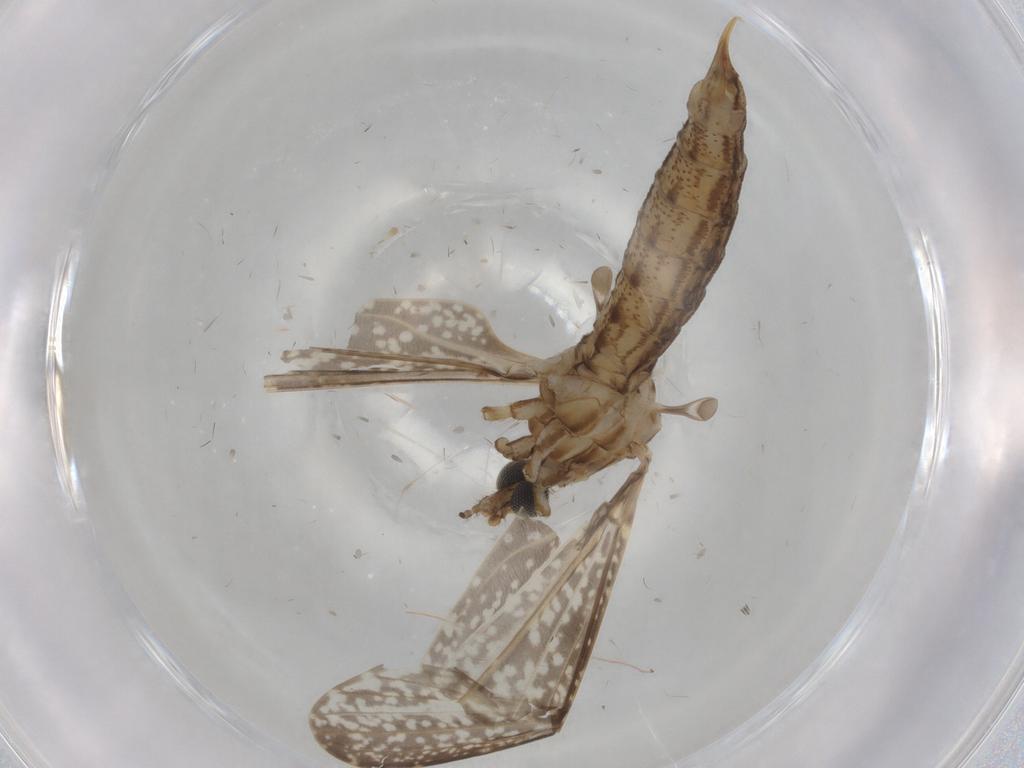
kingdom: Animalia
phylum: Arthropoda
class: Insecta
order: Diptera
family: Limoniidae
